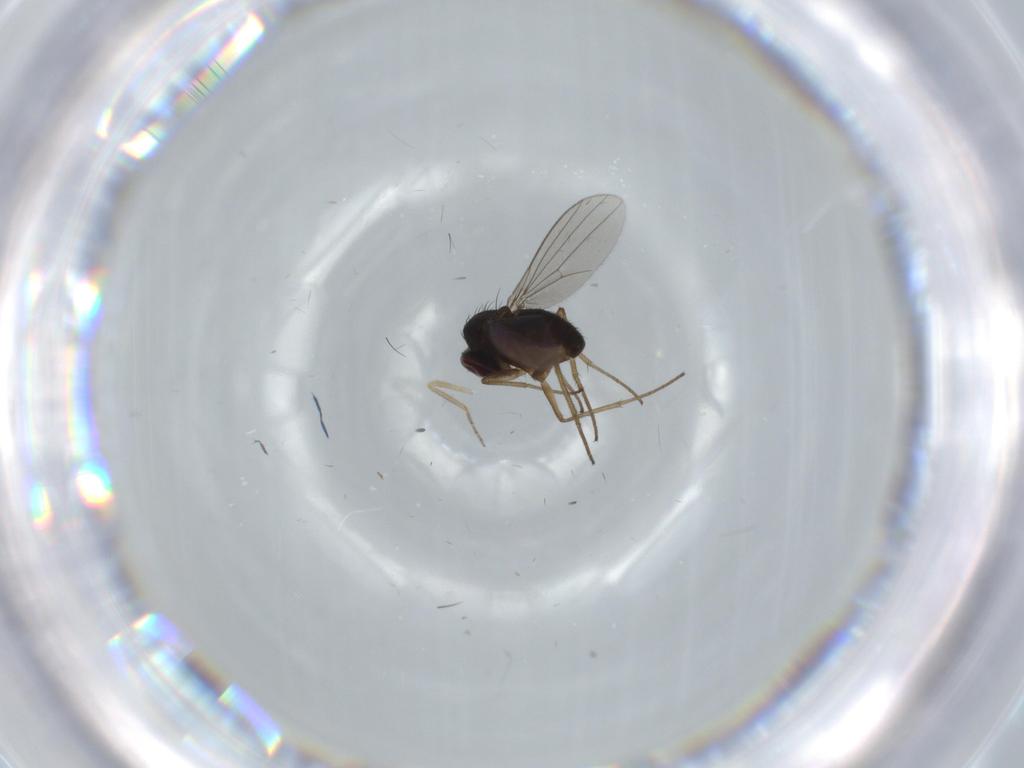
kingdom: Animalia
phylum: Arthropoda
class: Insecta
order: Diptera
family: Dolichopodidae
